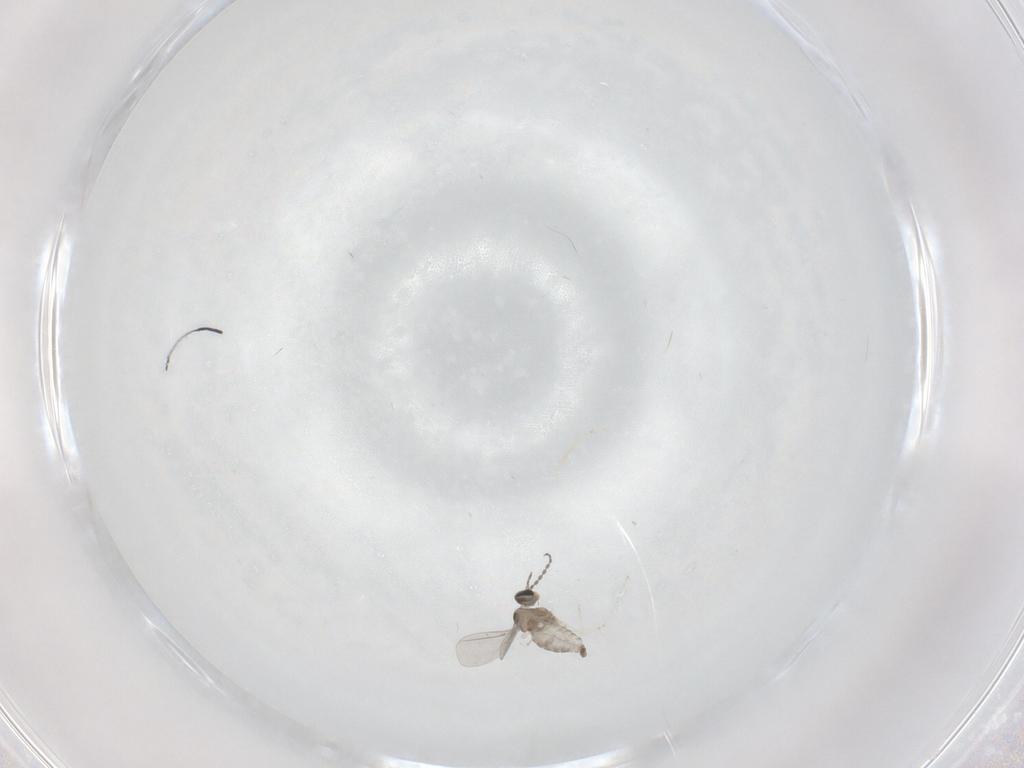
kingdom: Animalia
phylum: Arthropoda
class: Insecta
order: Diptera
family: Cecidomyiidae
